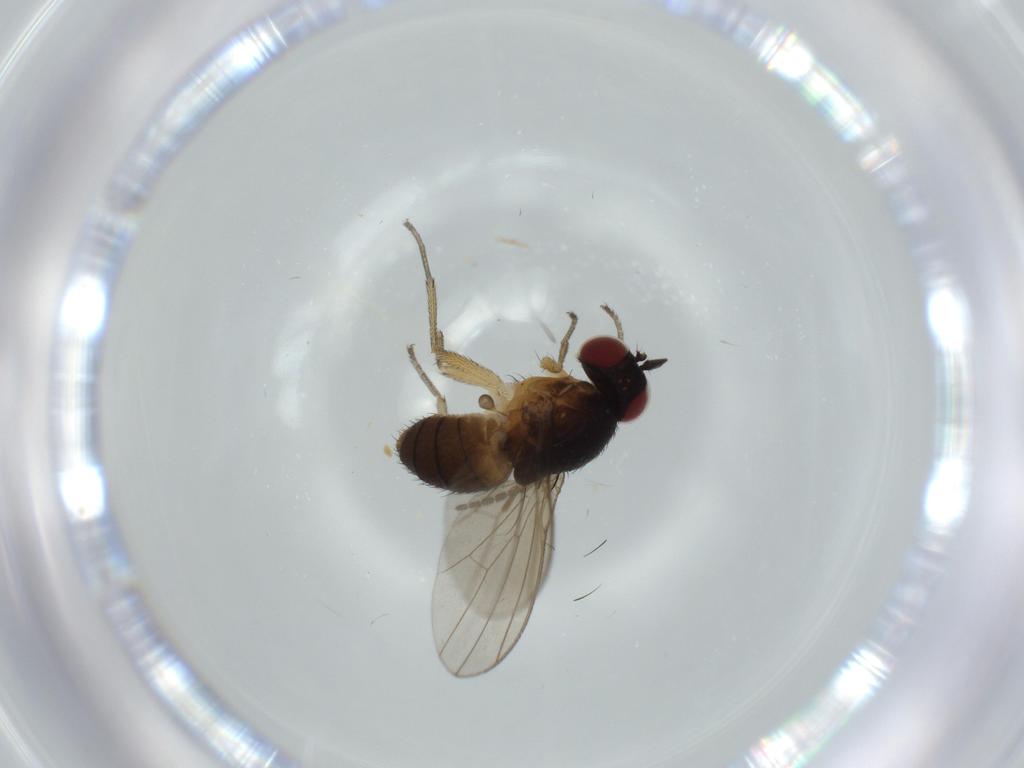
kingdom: Animalia
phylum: Arthropoda
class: Insecta
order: Diptera
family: Sciaridae
